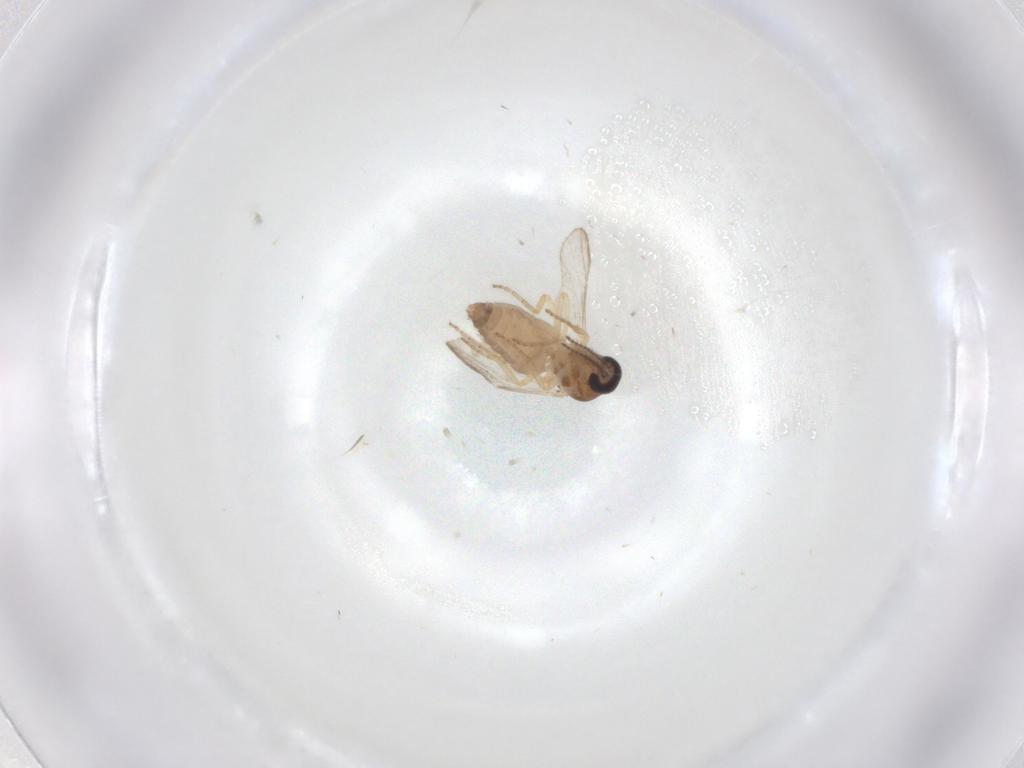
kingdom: Animalia
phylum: Arthropoda
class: Insecta
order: Diptera
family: Ceratopogonidae
